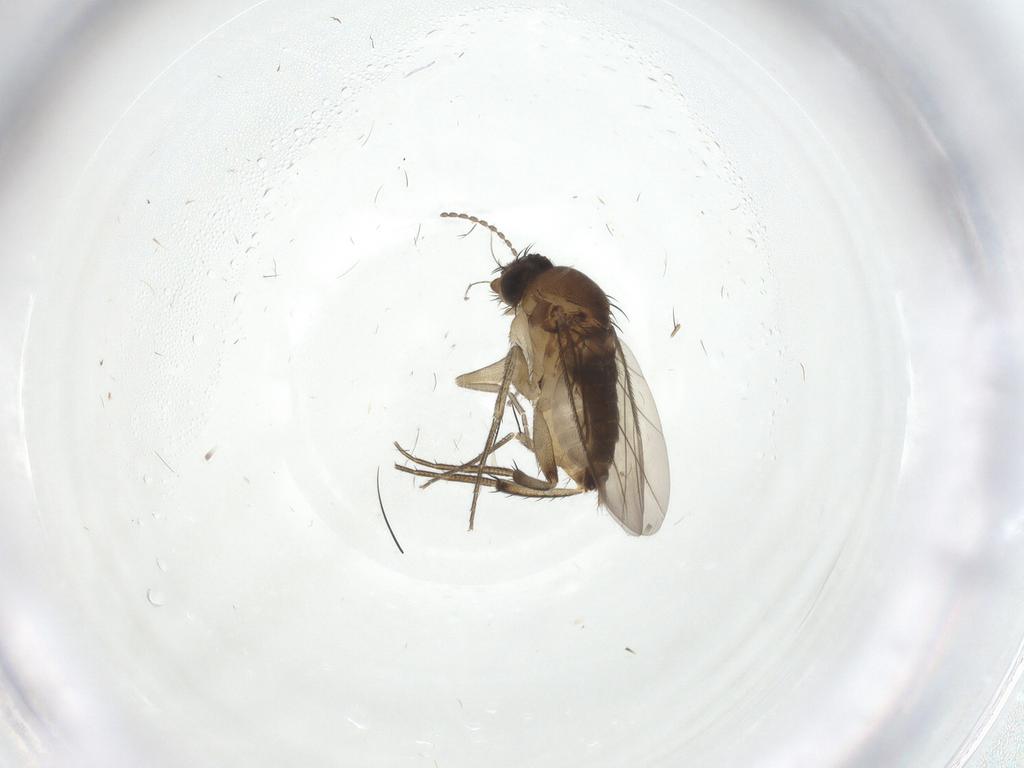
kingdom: Animalia
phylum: Arthropoda
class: Insecta
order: Diptera
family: Phoridae
